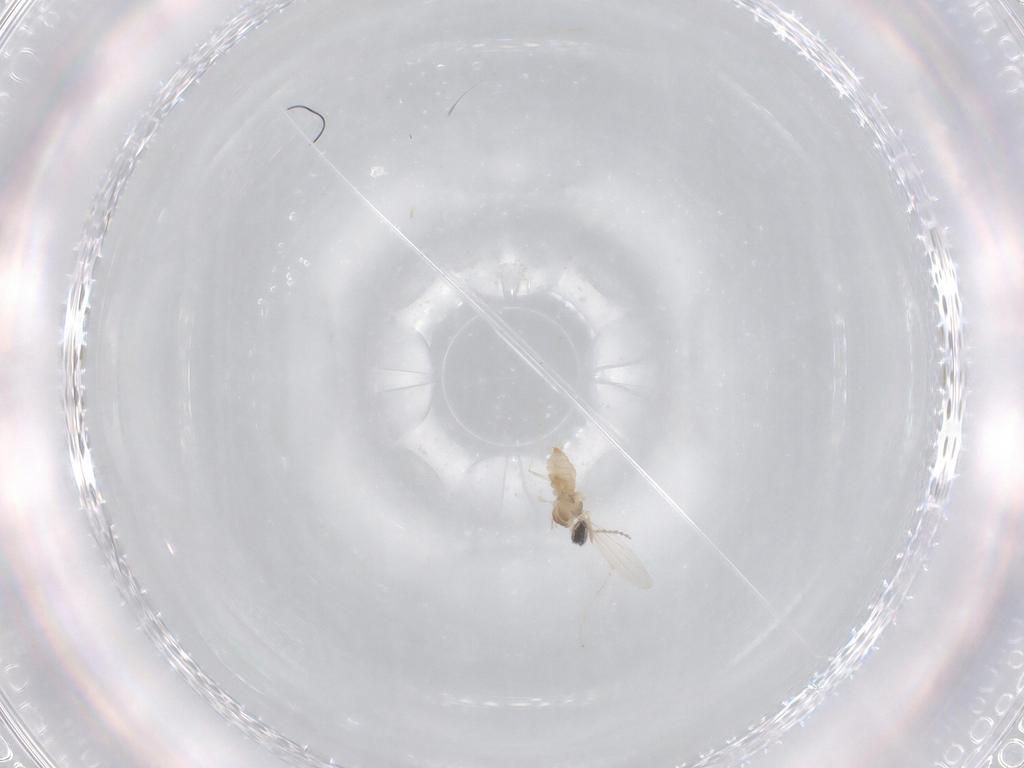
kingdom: Animalia
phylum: Arthropoda
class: Insecta
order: Diptera
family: Cecidomyiidae
